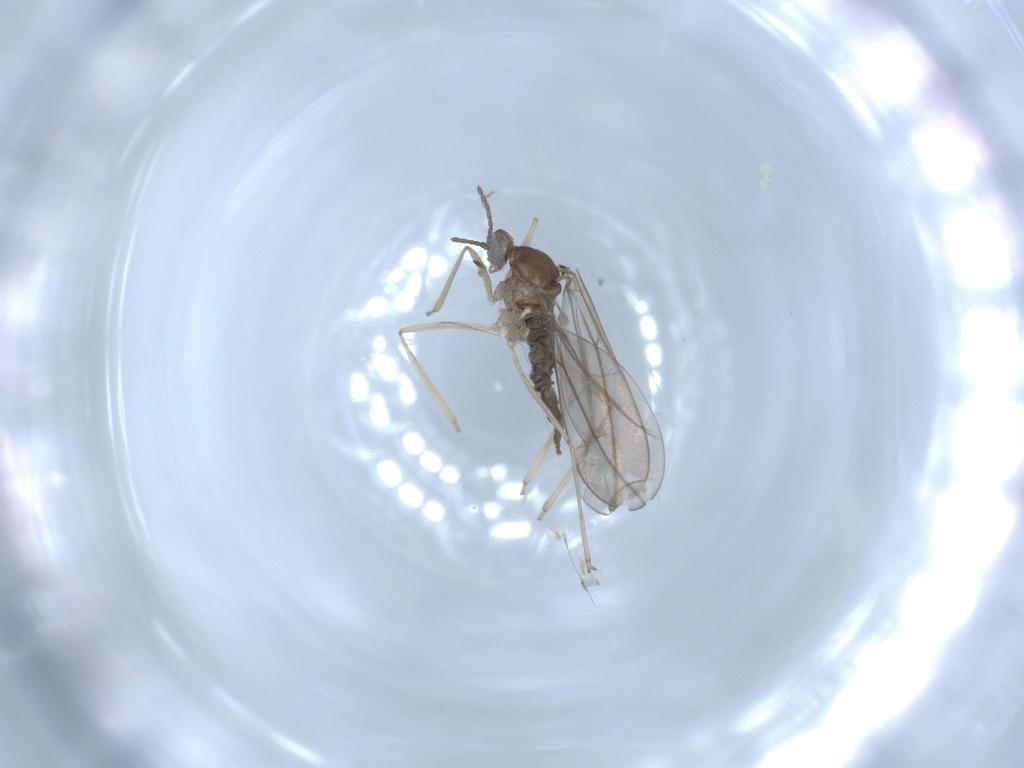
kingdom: Animalia
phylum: Arthropoda
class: Insecta
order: Diptera
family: Cecidomyiidae
